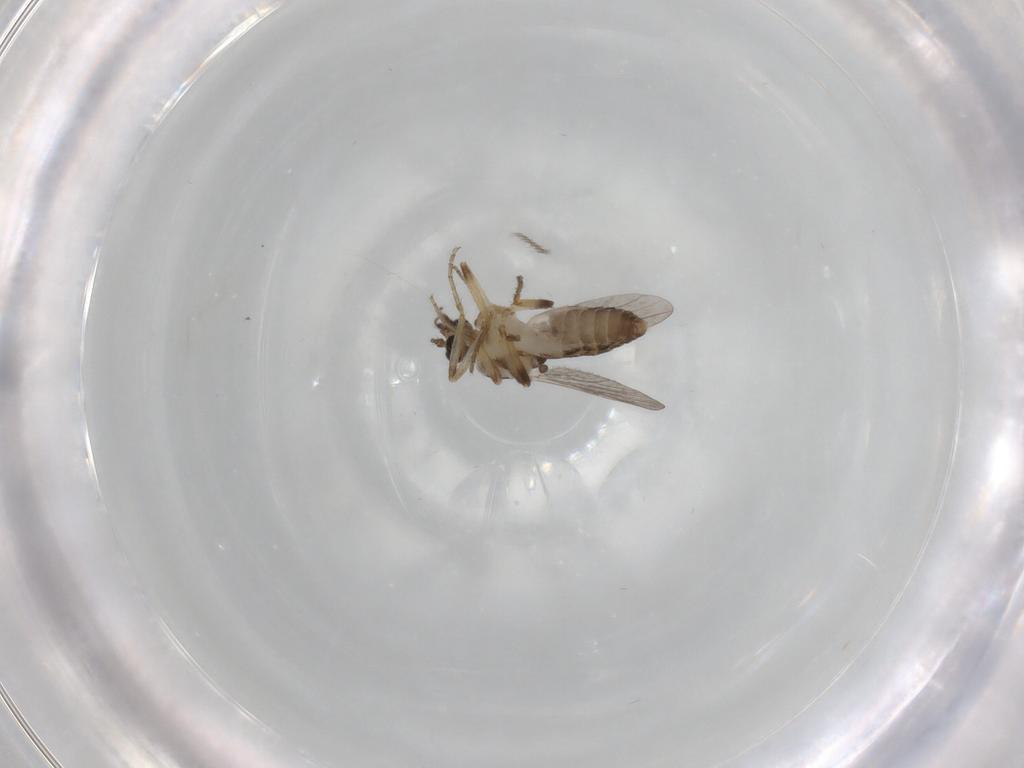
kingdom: Animalia
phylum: Arthropoda
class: Insecta
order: Diptera
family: Ceratopogonidae
